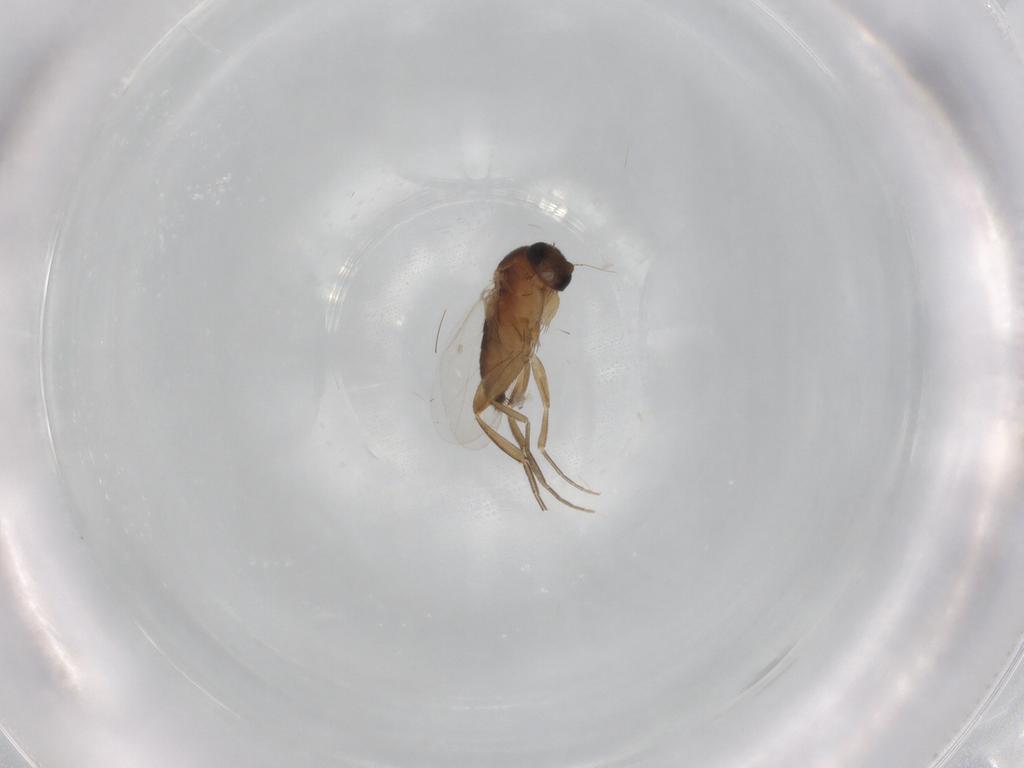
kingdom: Animalia
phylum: Arthropoda
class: Insecta
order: Diptera
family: Phoridae
